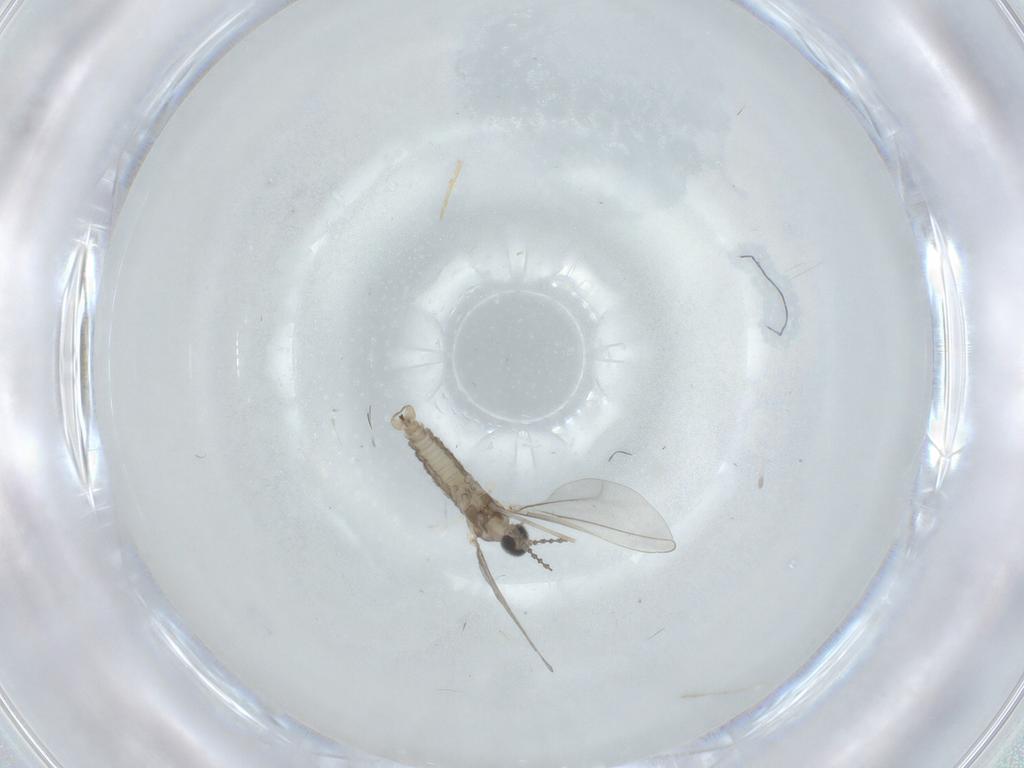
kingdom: Animalia
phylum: Arthropoda
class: Insecta
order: Diptera
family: Cecidomyiidae
